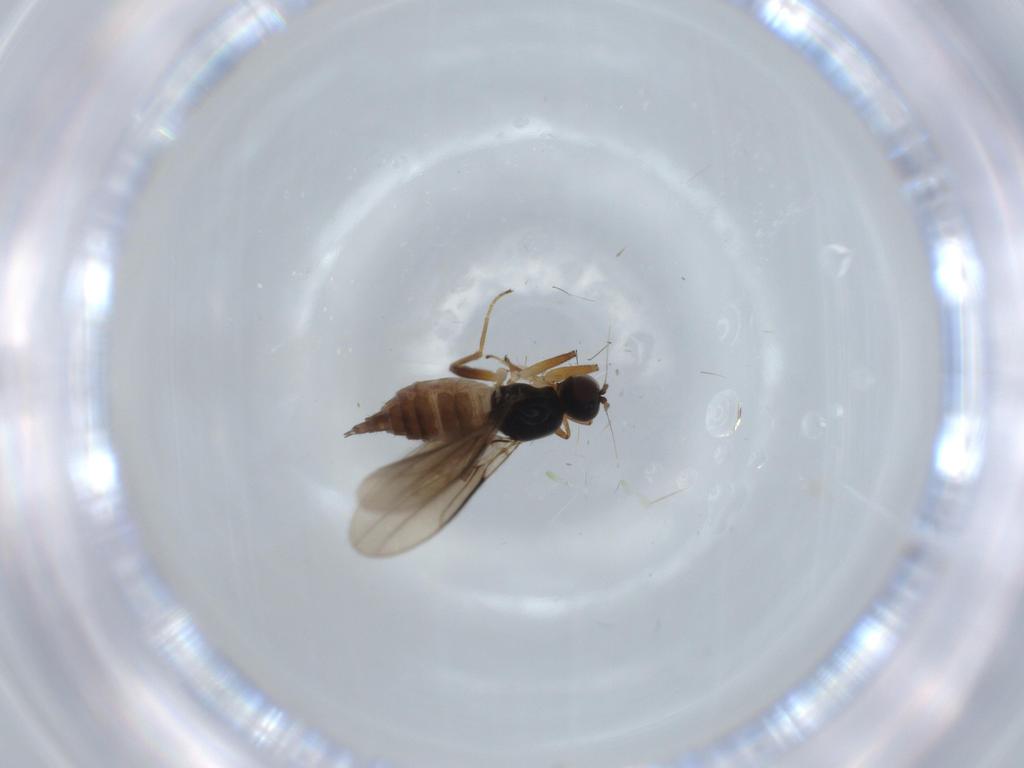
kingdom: Animalia
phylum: Arthropoda
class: Insecta
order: Diptera
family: Hybotidae
